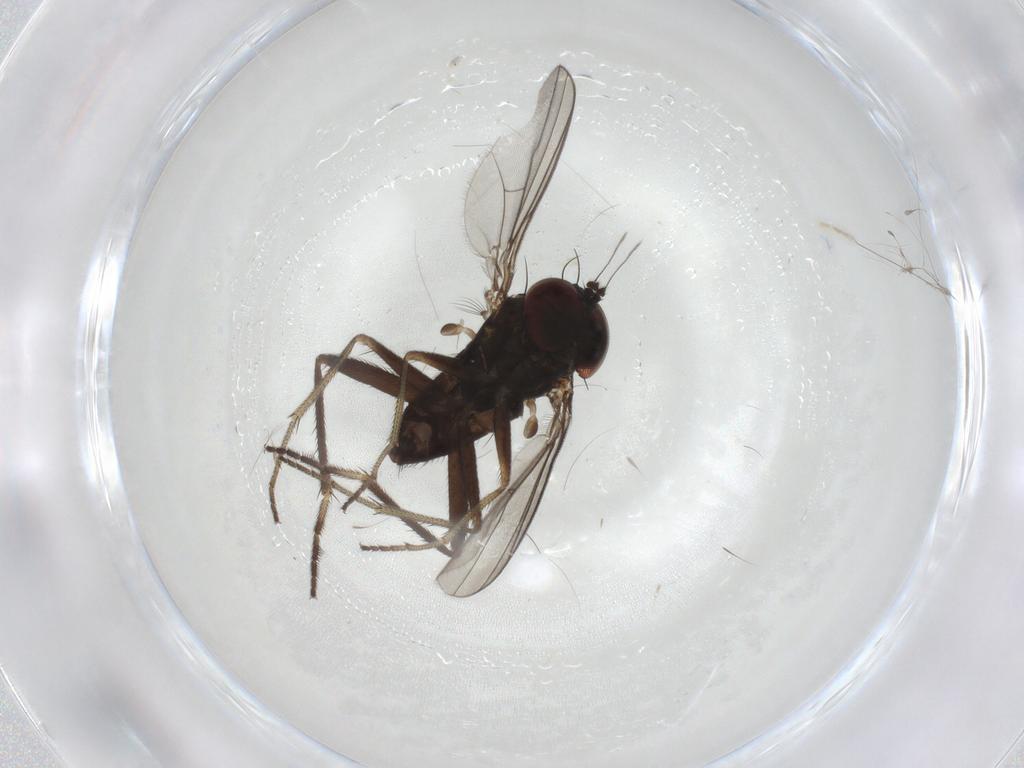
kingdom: Animalia
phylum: Arthropoda
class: Insecta
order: Diptera
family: Dolichopodidae
